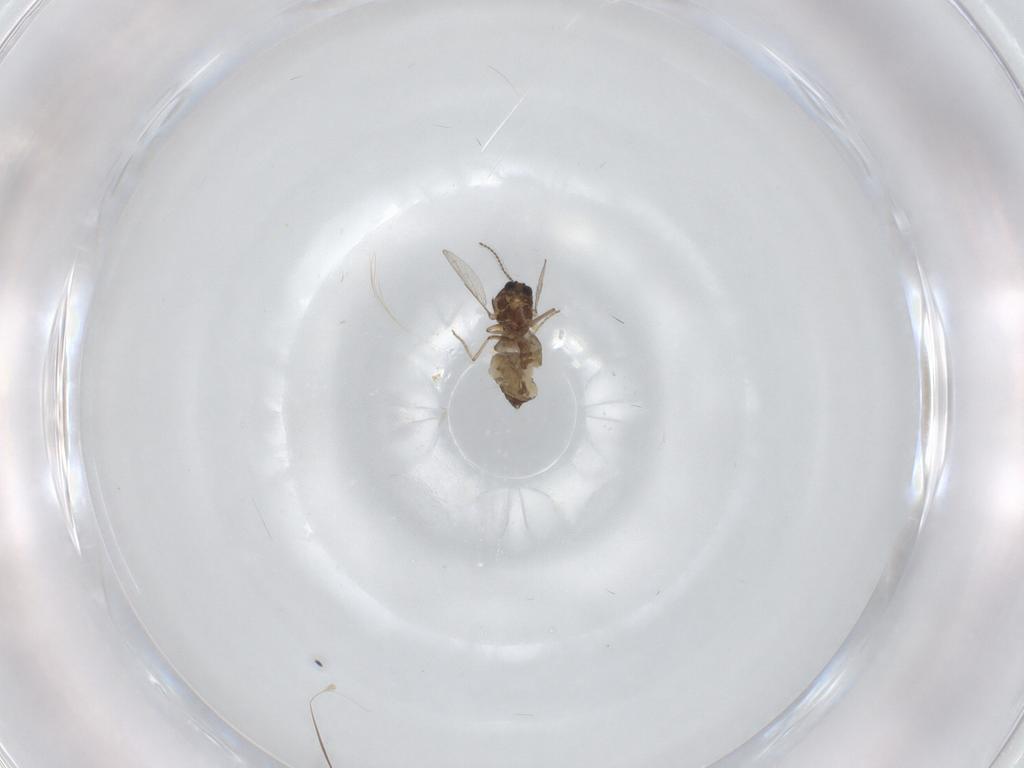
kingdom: Animalia
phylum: Arthropoda
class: Insecta
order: Diptera
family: Ceratopogonidae
